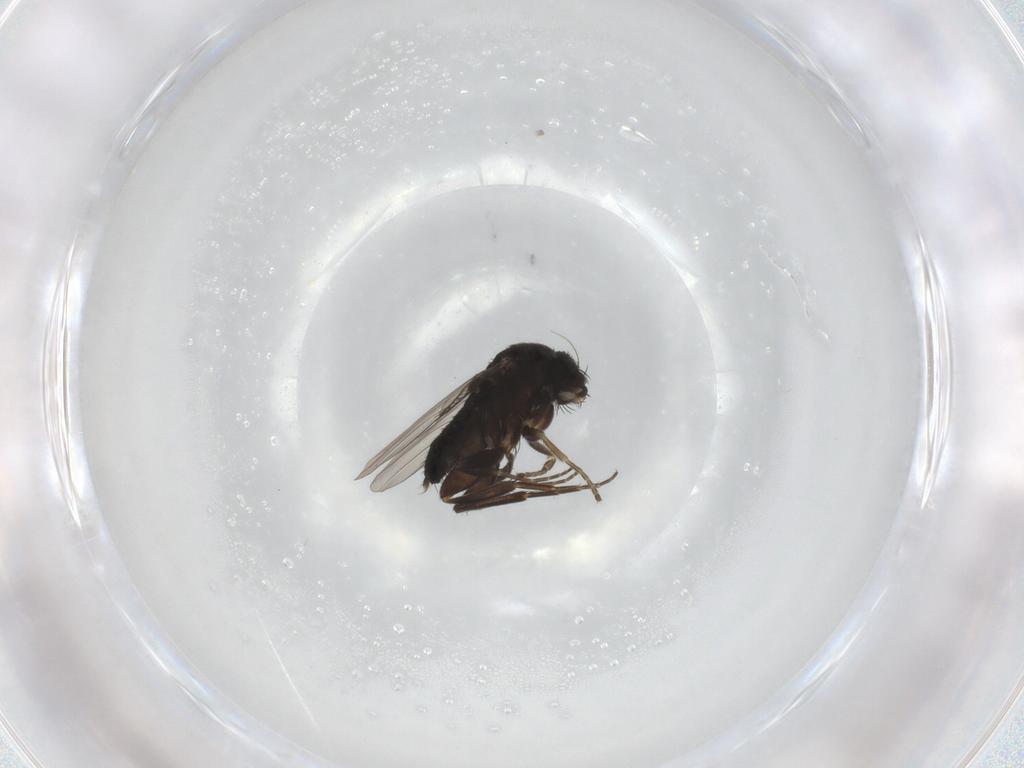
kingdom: Animalia
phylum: Arthropoda
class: Insecta
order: Diptera
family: Phoridae
